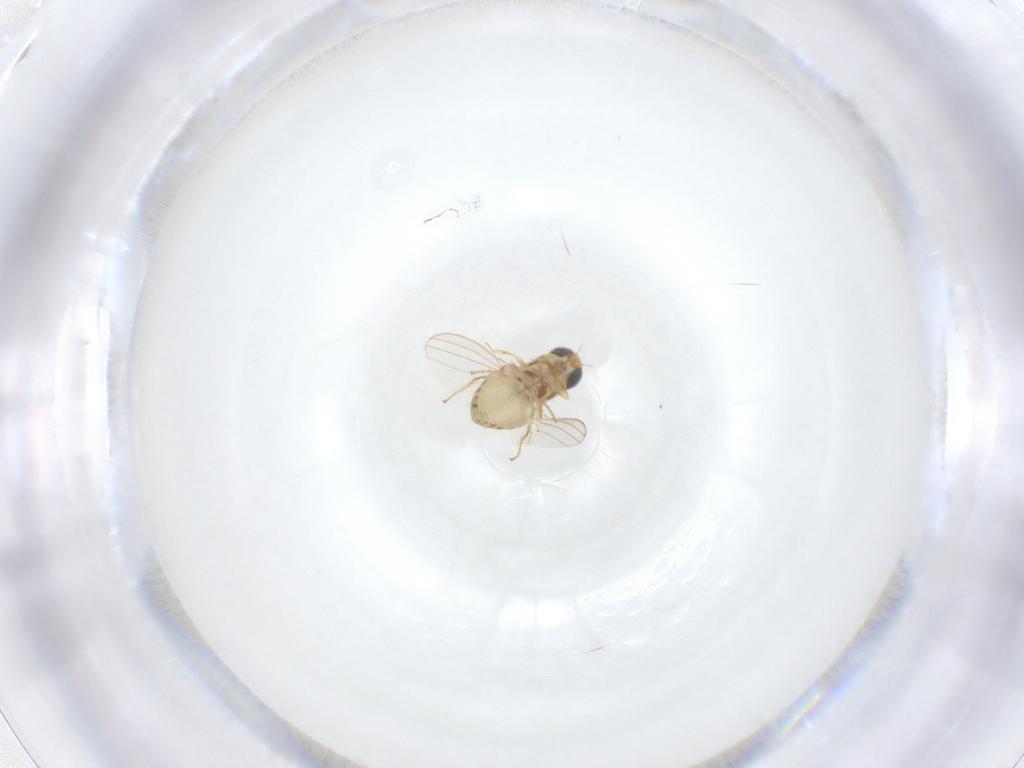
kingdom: Animalia
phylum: Arthropoda
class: Insecta
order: Diptera
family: Chyromyidae
